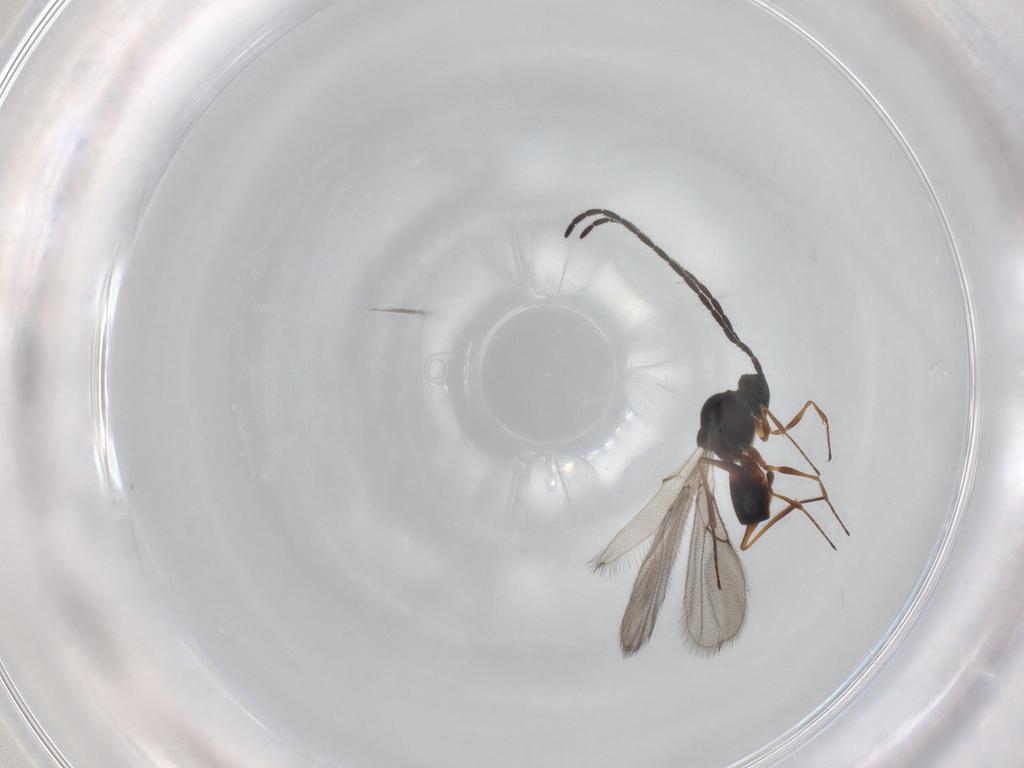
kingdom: Animalia
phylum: Arthropoda
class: Insecta
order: Hymenoptera
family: Figitidae
